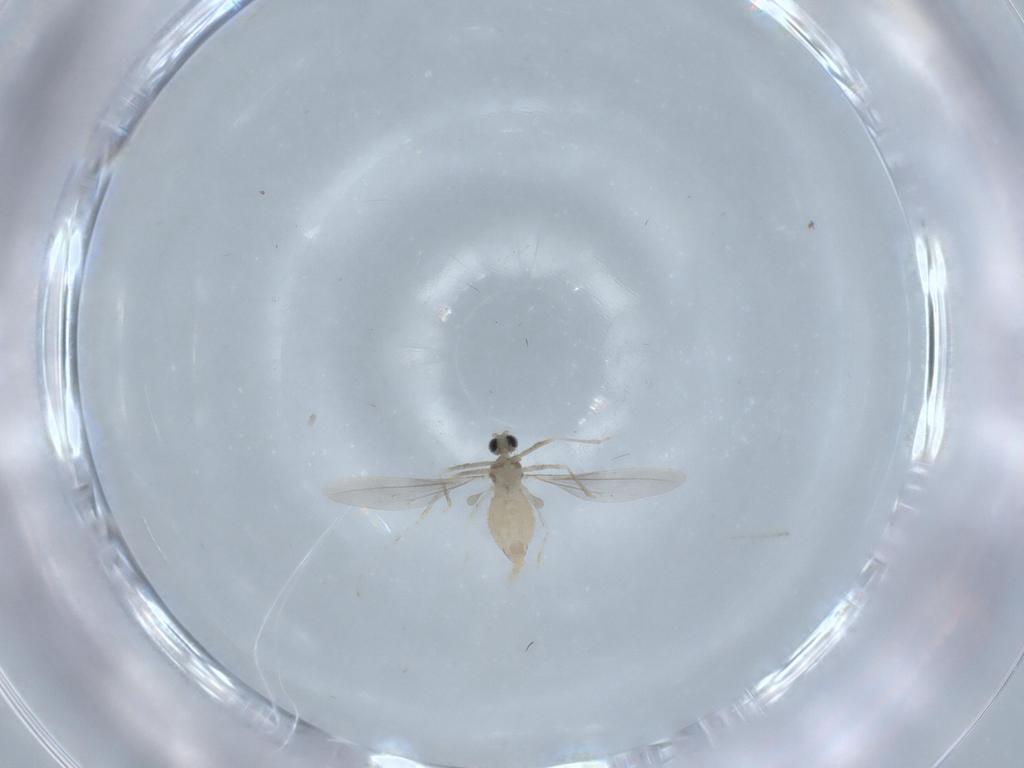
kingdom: Animalia
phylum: Arthropoda
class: Insecta
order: Diptera
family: Cecidomyiidae
